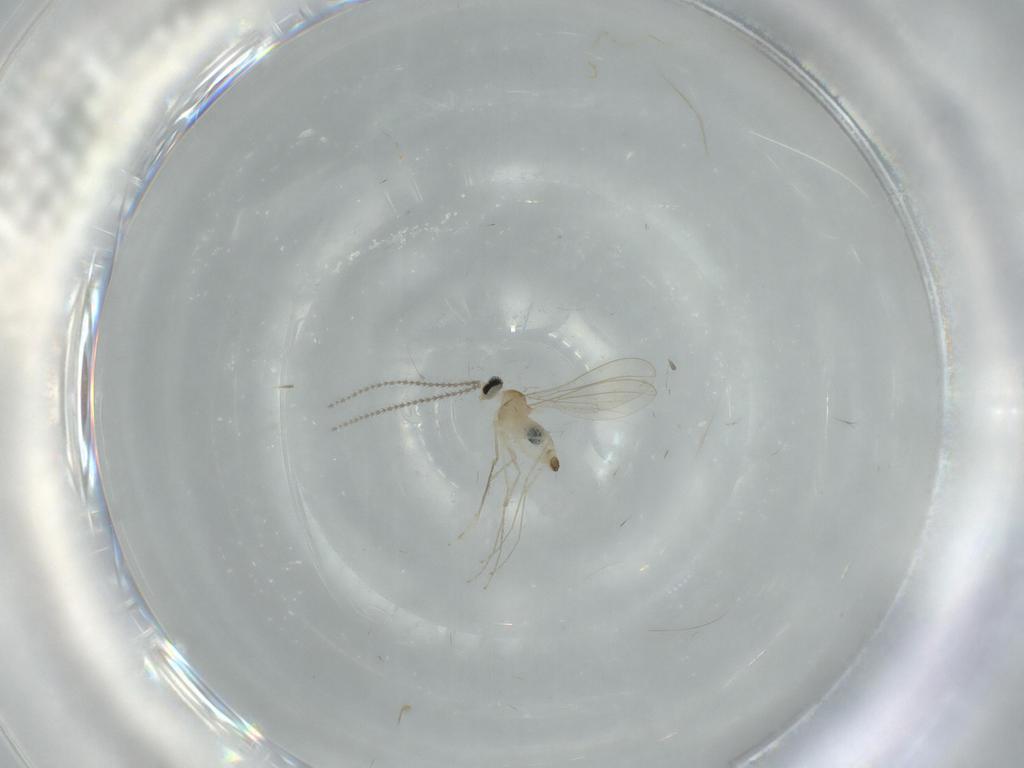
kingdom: Animalia
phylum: Arthropoda
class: Insecta
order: Diptera
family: Cecidomyiidae
